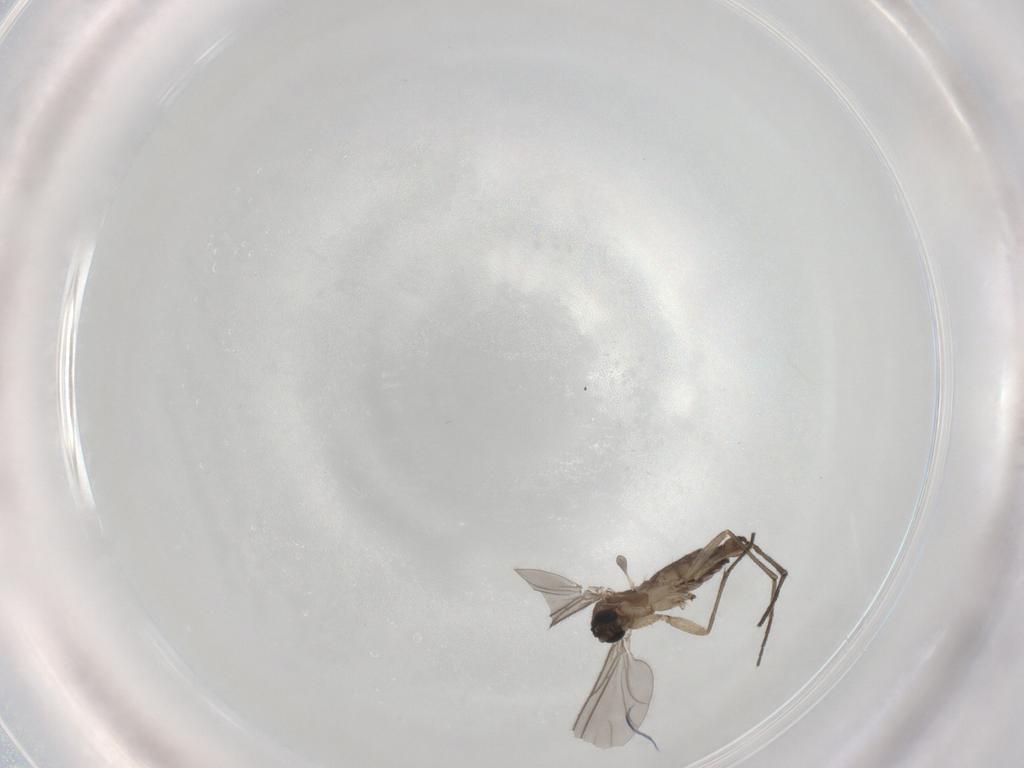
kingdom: Animalia
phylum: Arthropoda
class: Insecta
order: Diptera
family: Sciaridae
